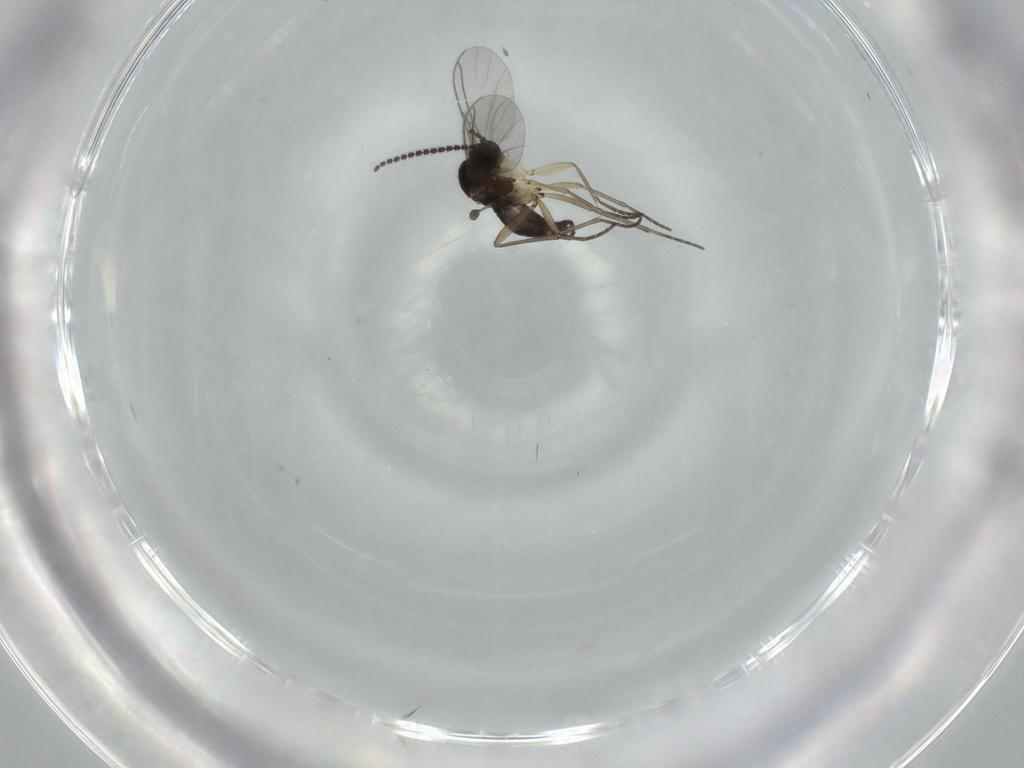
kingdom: Animalia
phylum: Arthropoda
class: Insecta
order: Diptera
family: Sciaridae
